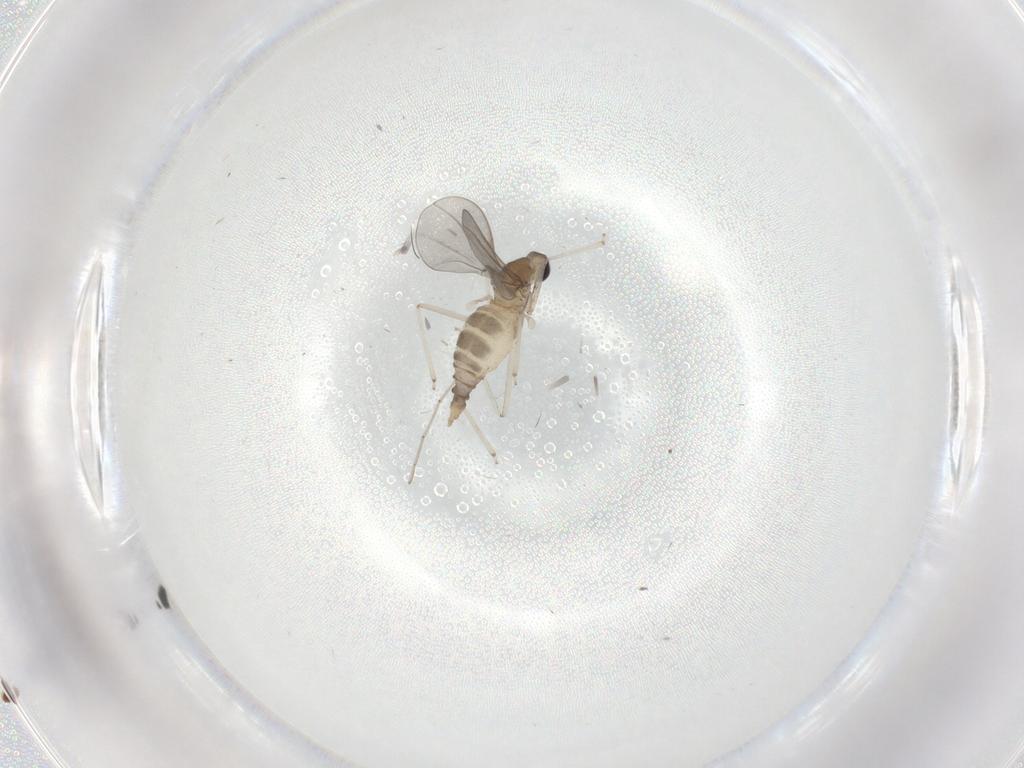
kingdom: Animalia
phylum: Arthropoda
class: Insecta
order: Diptera
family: Cecidomyiidae
